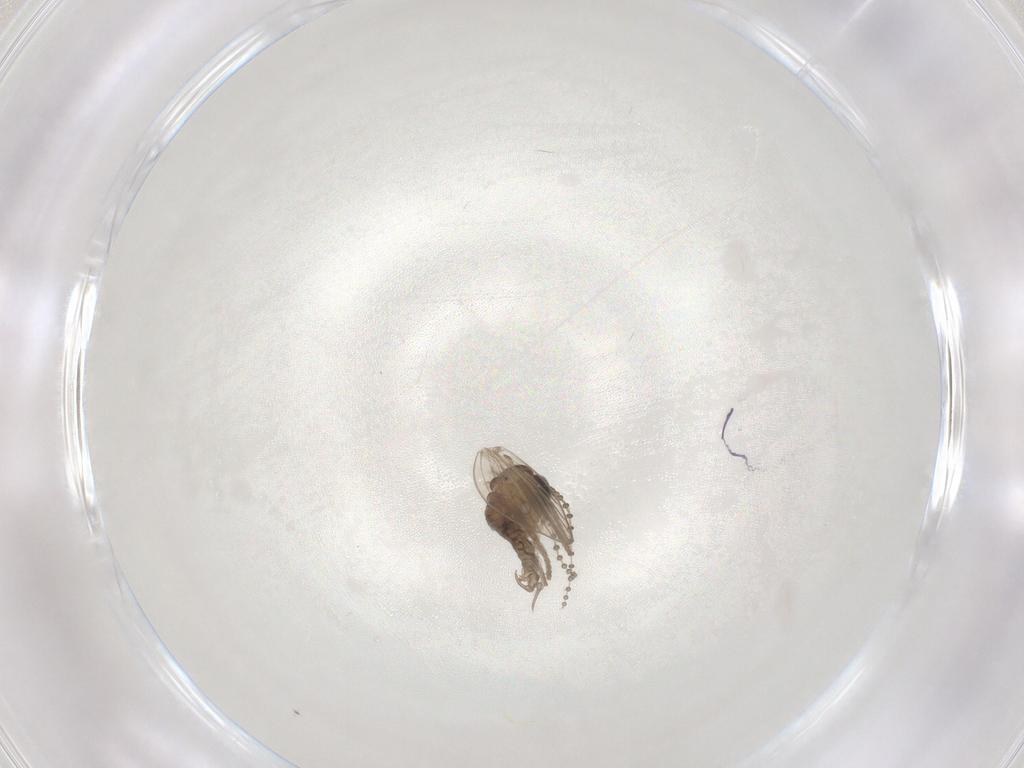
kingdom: Animalia
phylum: Arthropoda
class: Insecta
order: Diptera
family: Psychodidae
